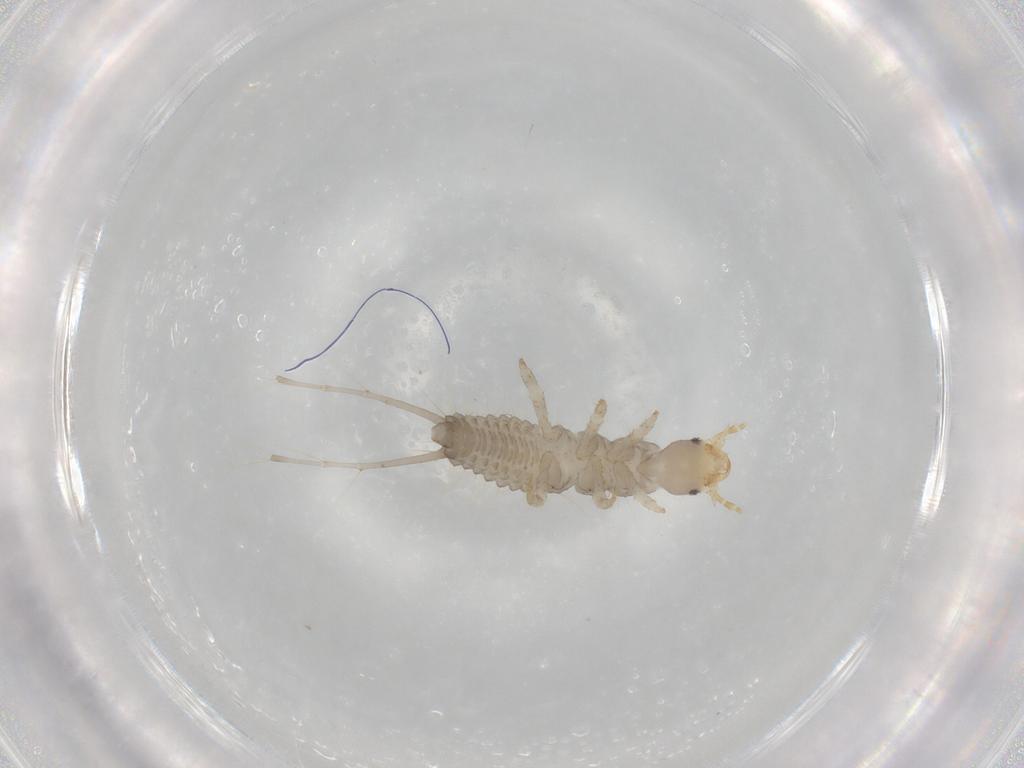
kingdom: Animalia
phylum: Arthropoda
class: Insecta
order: Coleoptera
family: Carabidae
